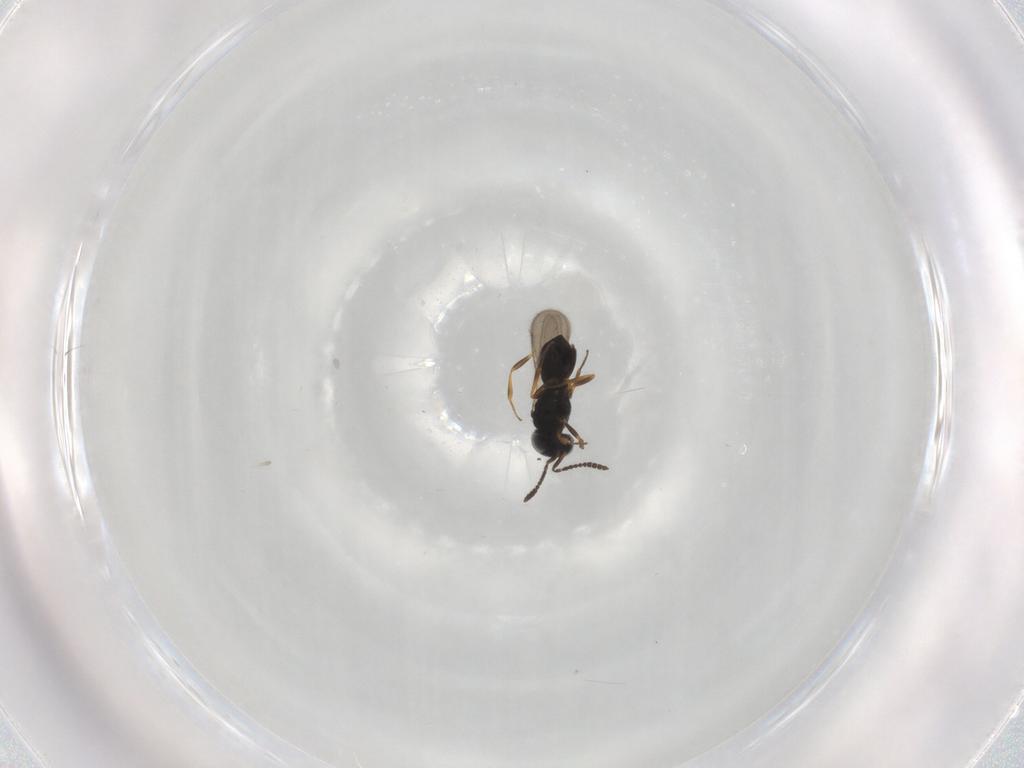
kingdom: Animalia
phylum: Arthropoda
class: Insecta
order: Hymenoptera
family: Scelionidae
